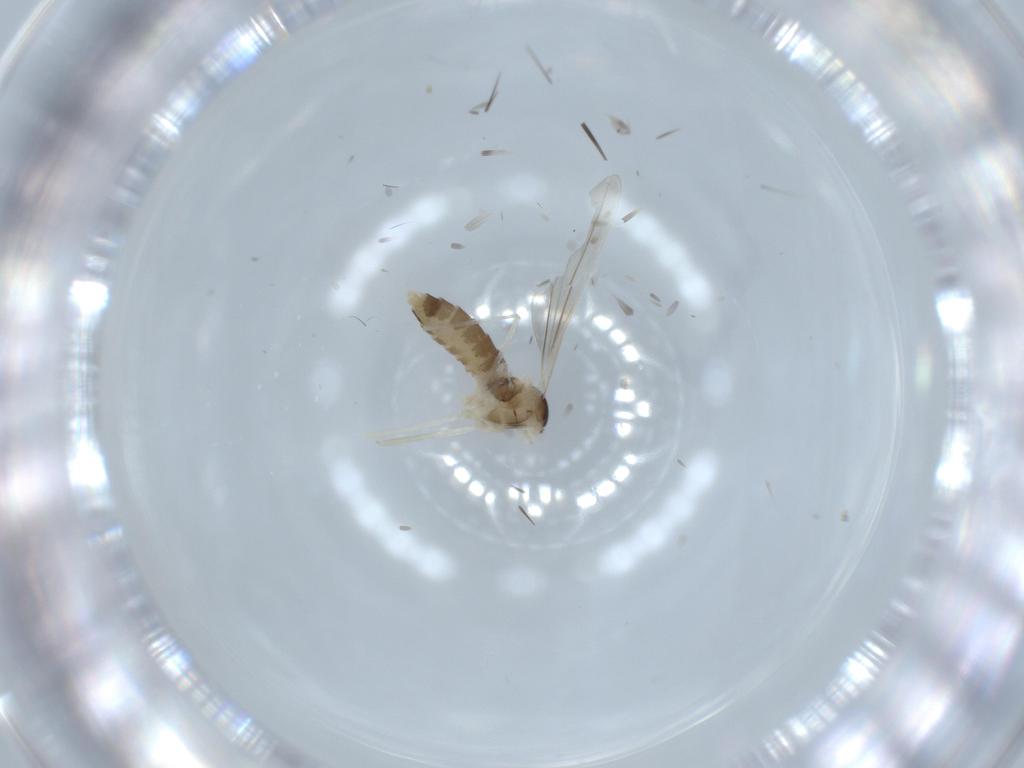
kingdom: Animalia
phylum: Arthropoda
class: Insecta
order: Diptera
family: Cecidomyiidae
